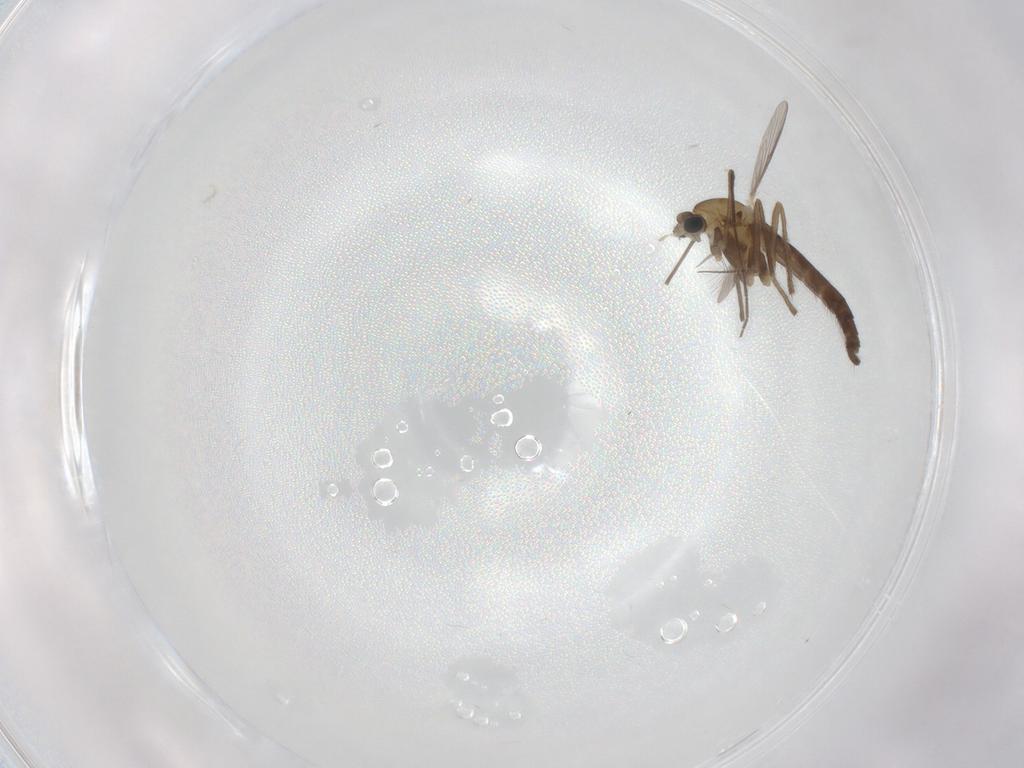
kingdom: Animalia
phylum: Arthropoda
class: Insecta
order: Diptera
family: Chironomidae
